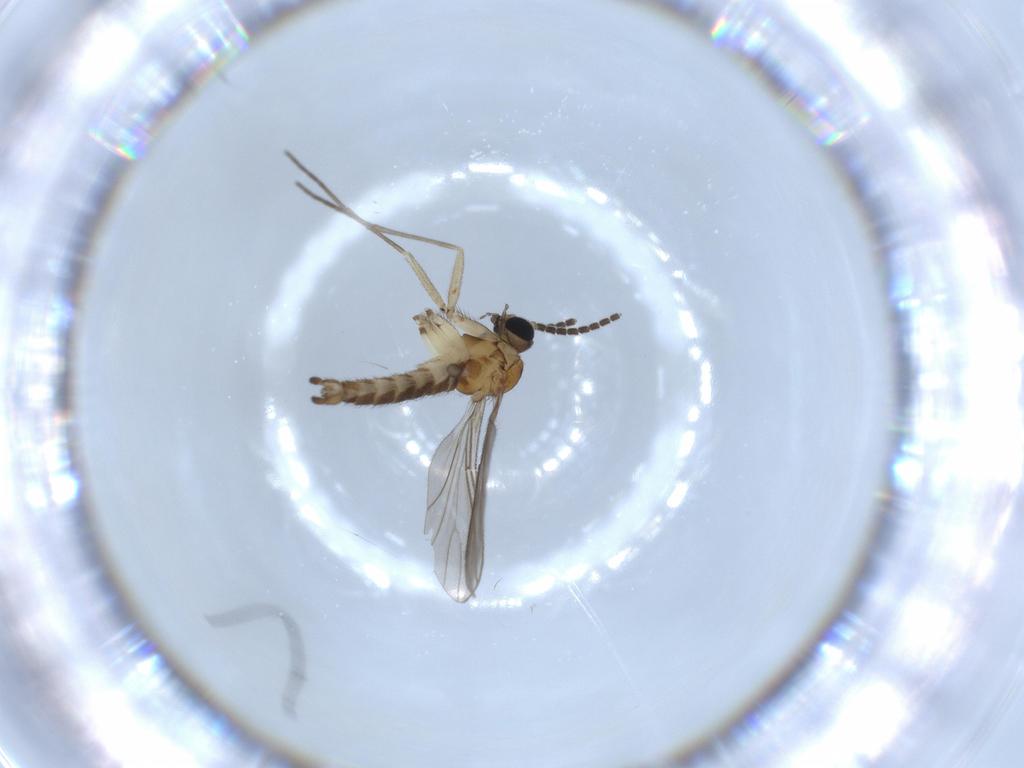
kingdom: Animalia
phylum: Arthropoda
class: Insecta
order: Diptera
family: Sciaridae
